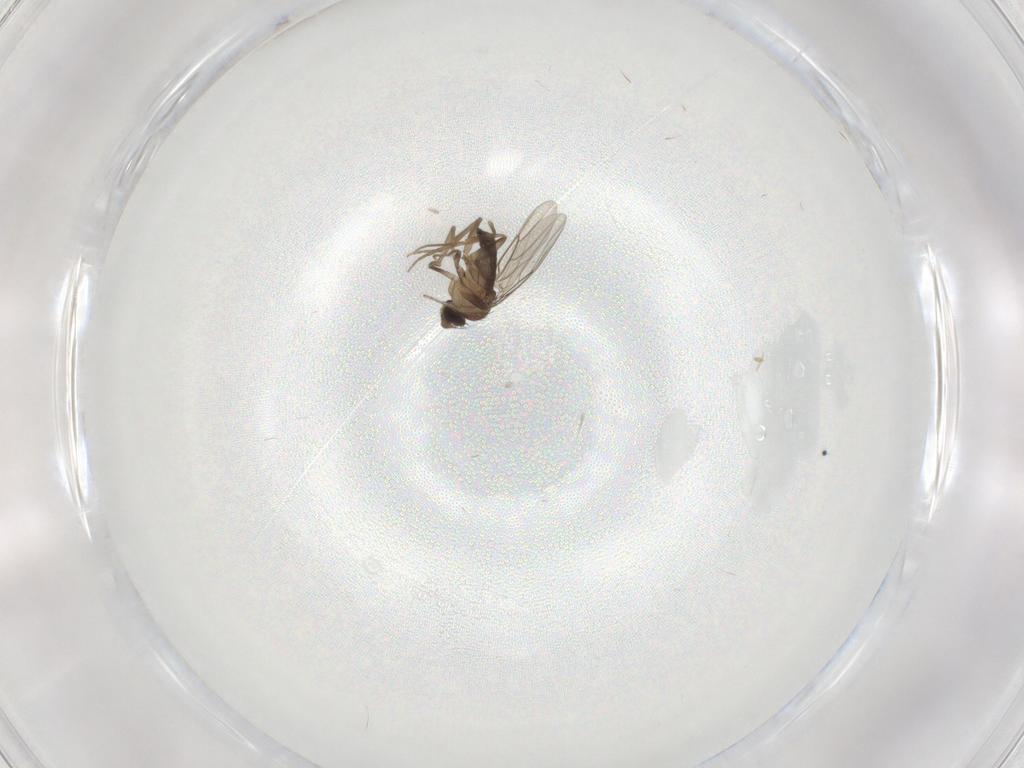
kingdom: Animalia
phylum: Arthropoda
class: Insecta
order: Diptera
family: Phoridae
